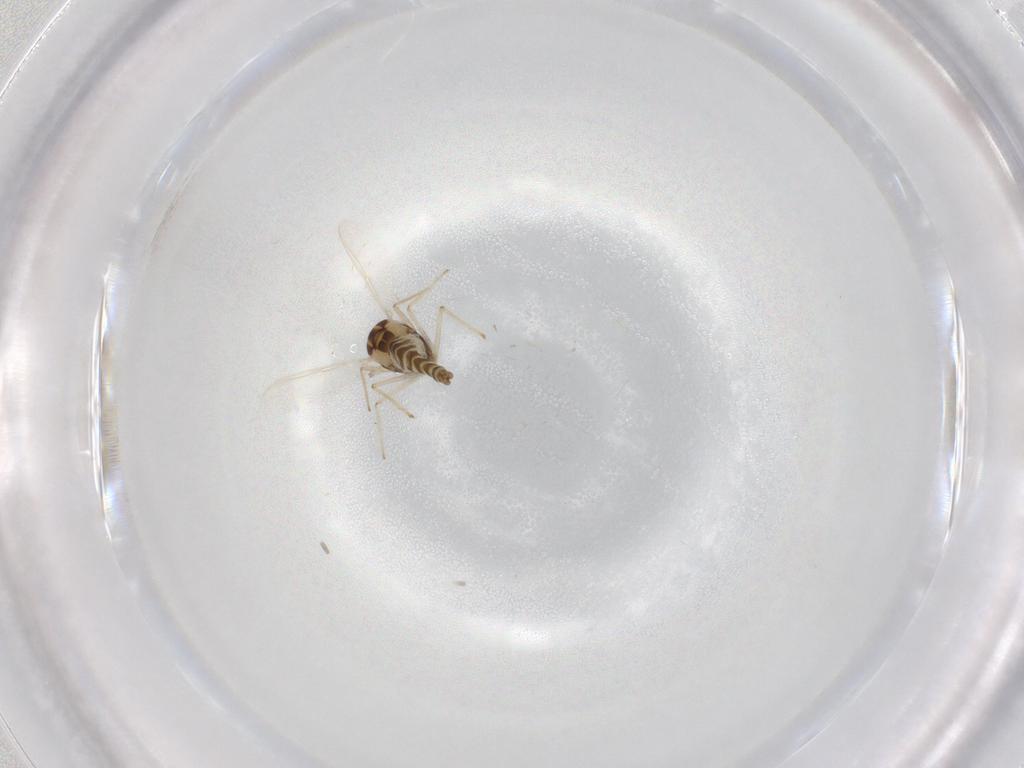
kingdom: Animalia
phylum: Arthropoda
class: Insecta
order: Diptera
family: Chironomidae
